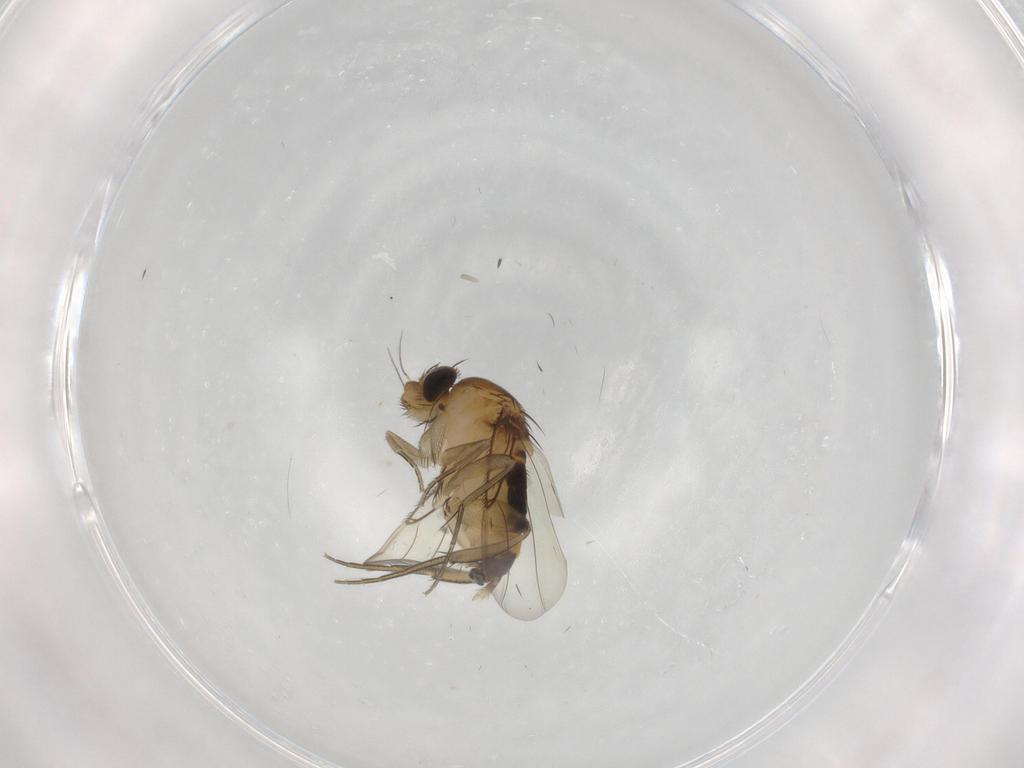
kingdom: Animalia
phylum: Arthropoda
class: Insecta
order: Diptera
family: Phoridae
